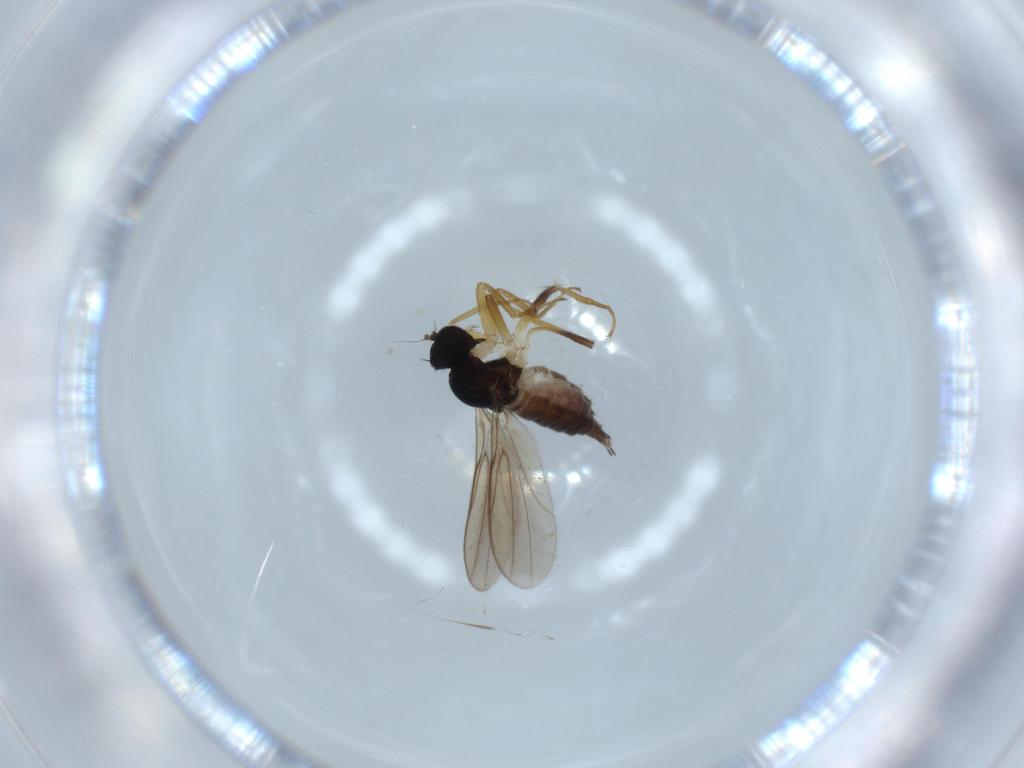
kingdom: Animalia
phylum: Arthropoda
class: Insecta
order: Diptera
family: Hybotidae
